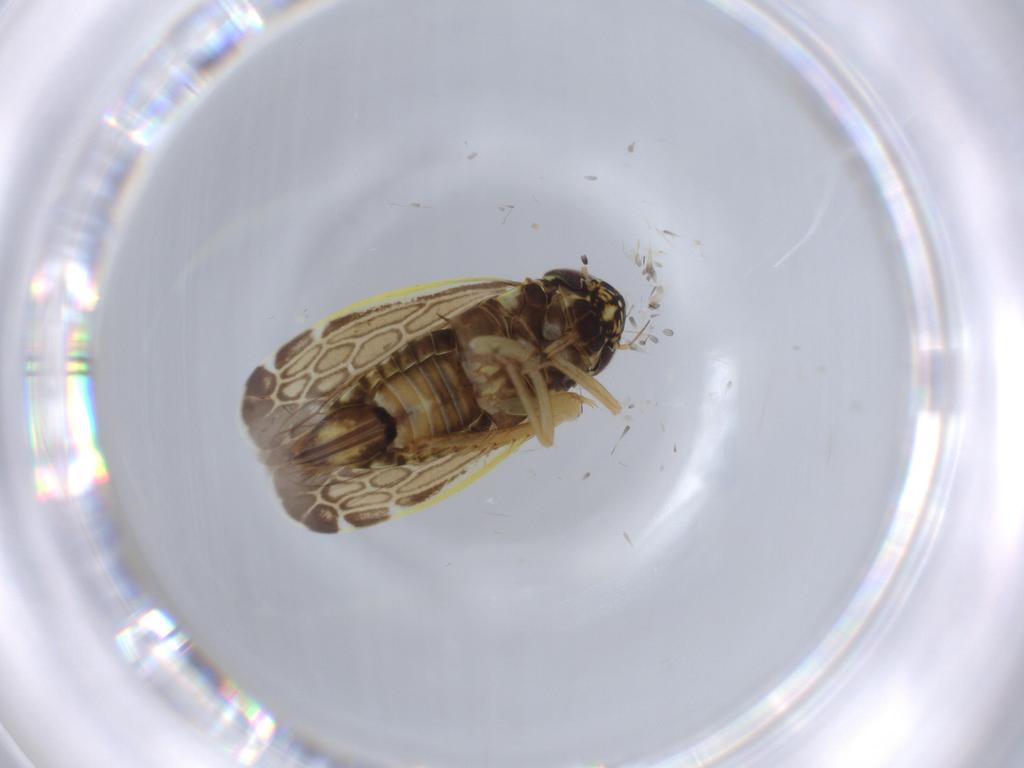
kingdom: Animalia
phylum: Arthropoda
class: Insecta
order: Hemiptera
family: Cicadellidae
